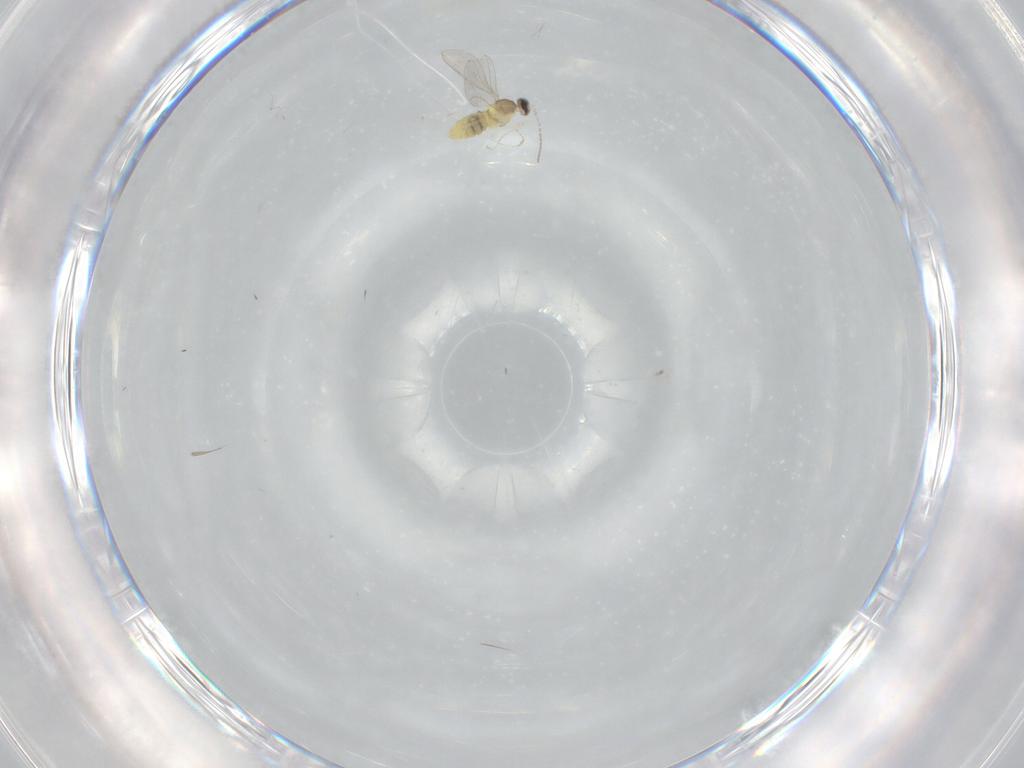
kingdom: Animalia
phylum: Arthropoda
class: Insecta
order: Diptera
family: Cecidomyiidae
